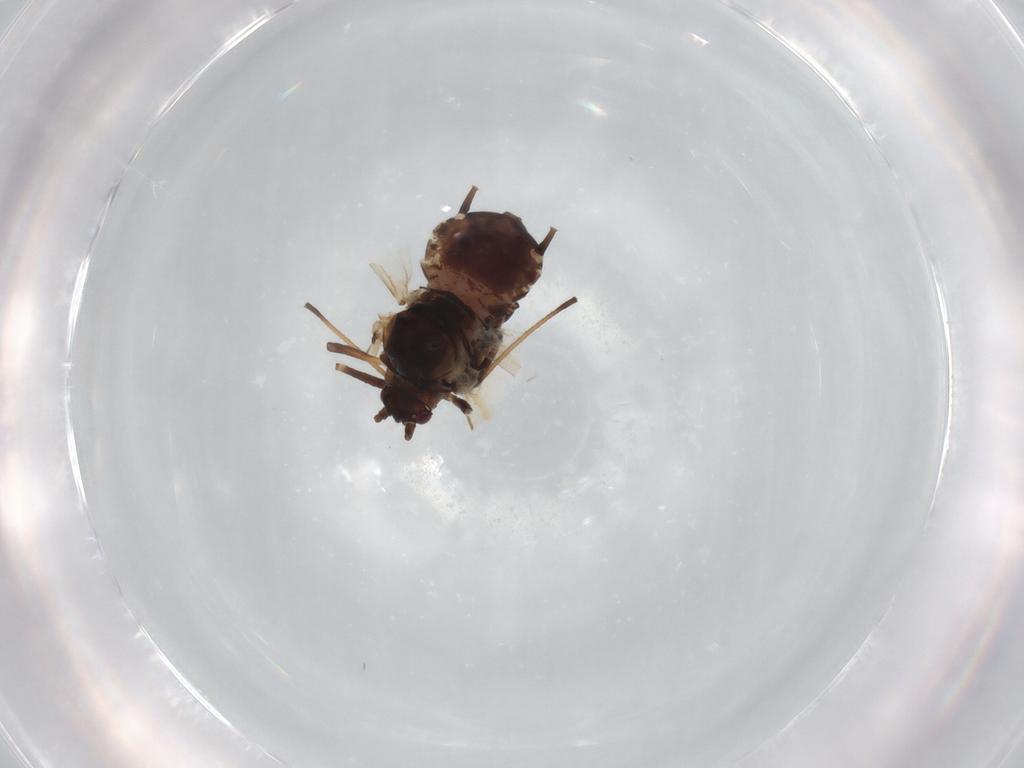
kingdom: Animalia
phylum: Arthropoda
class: Insecta
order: Hemiptera
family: Aphididae
